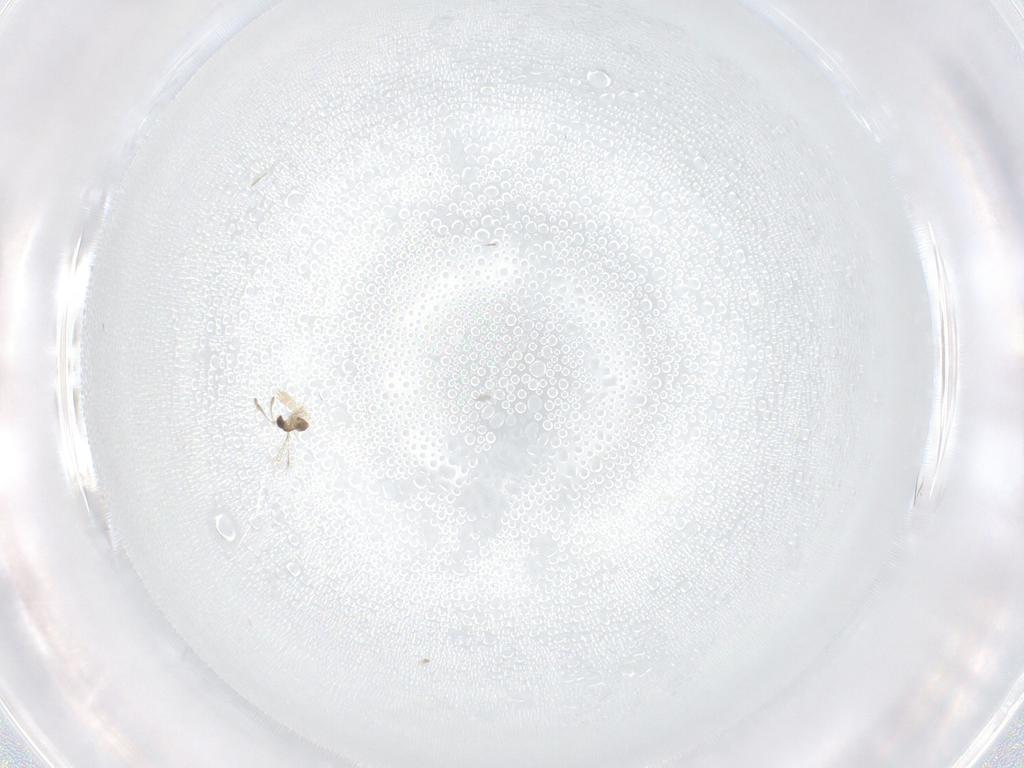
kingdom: Animalia
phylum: Arthropoda
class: Insecta
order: Hymenoptera
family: Eulophidae
